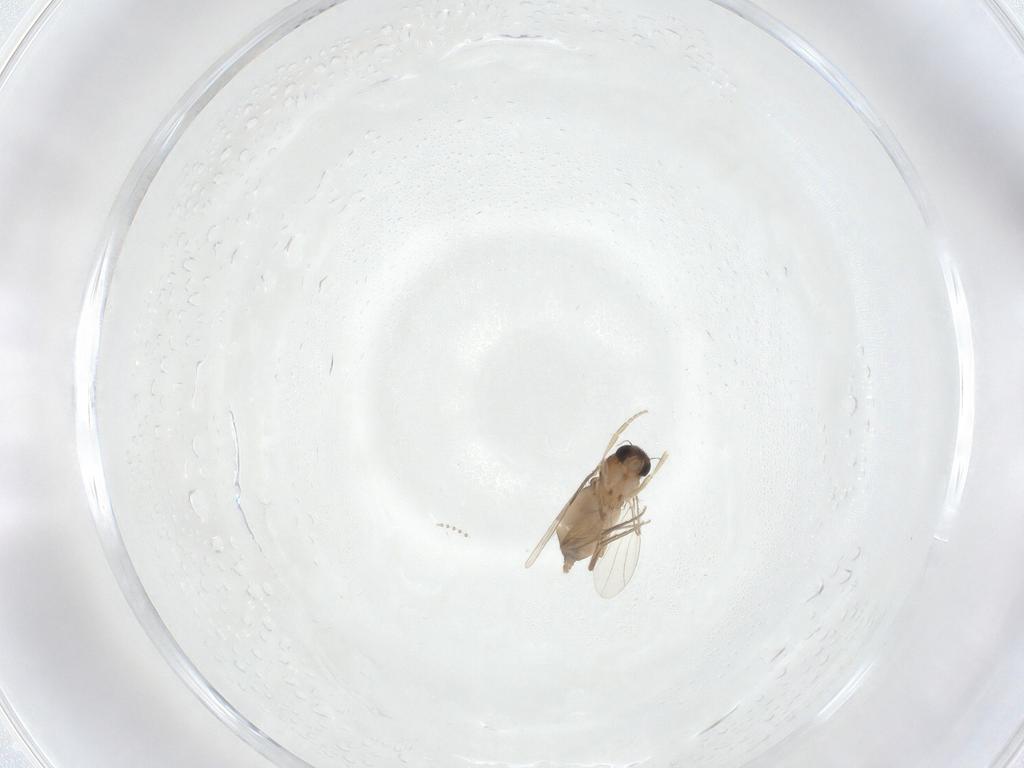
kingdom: Animalia
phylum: Arthropoda
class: Insecta
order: Diptera
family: Phoridae
